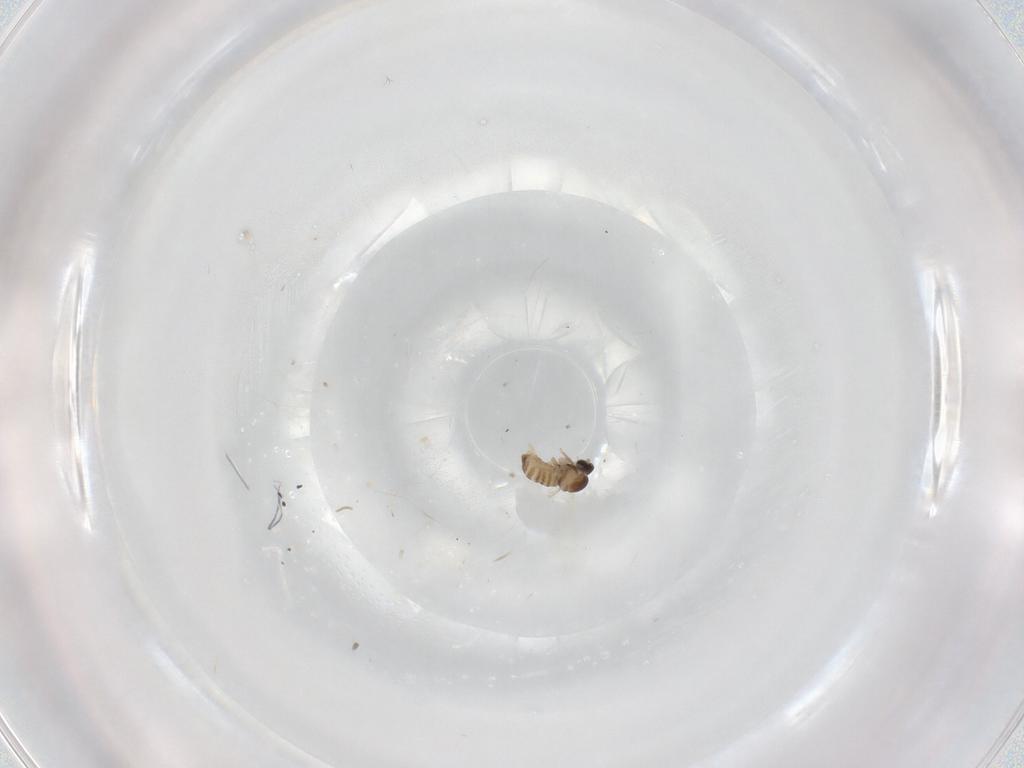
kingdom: Animalia
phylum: Arthropoda
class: Insecta
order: Diptera
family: Cecidomyiidae
